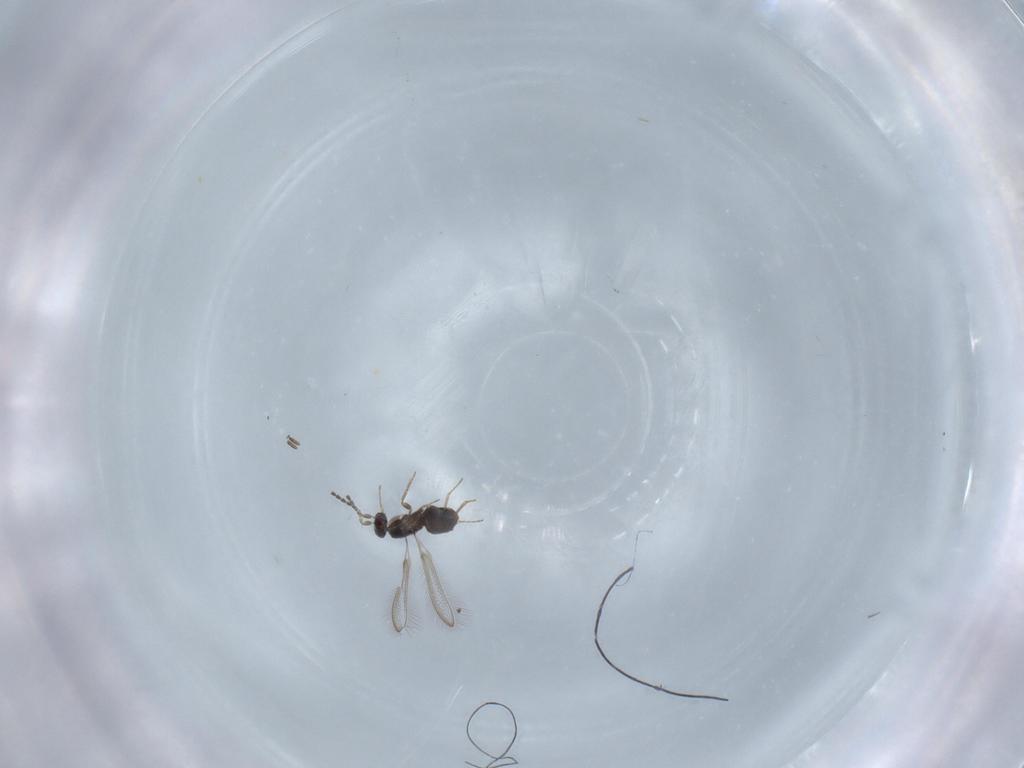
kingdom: Animalia
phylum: Arthropoda
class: Insecta
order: Hymenoptera
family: Mymaridae
